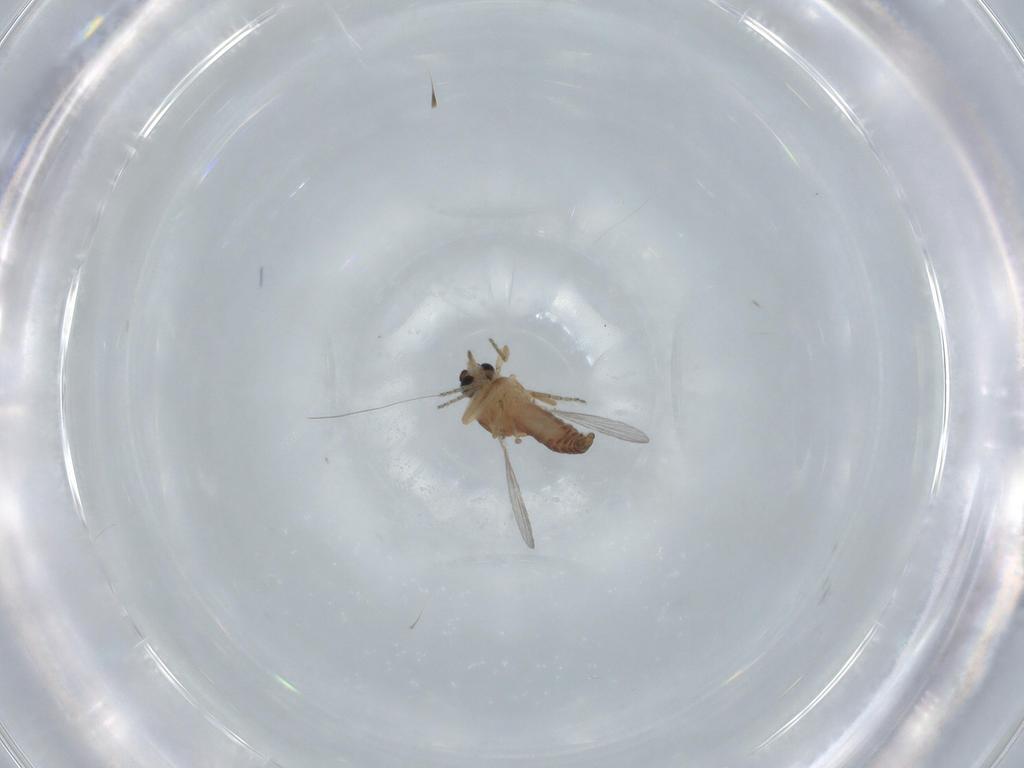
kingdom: Animalia
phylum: Arthropoda
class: Insecta
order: Diptera
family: Ceratopogonidae
